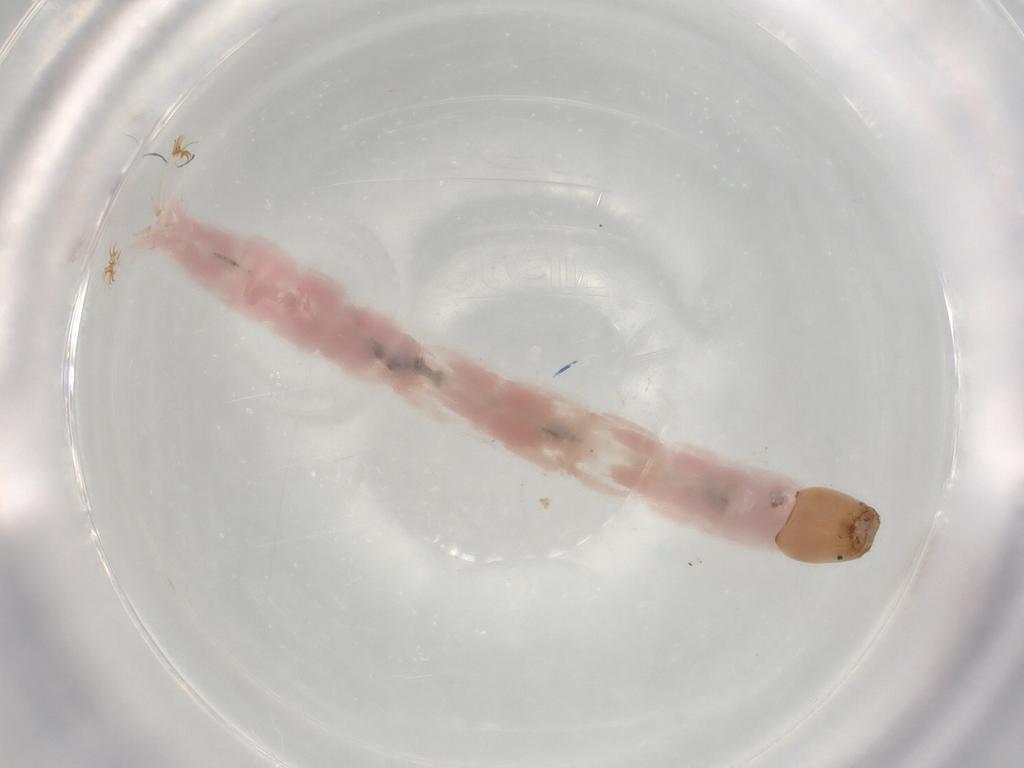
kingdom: Animalia
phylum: Arthropoda
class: Insecta
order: Diptera
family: Chironomidae
